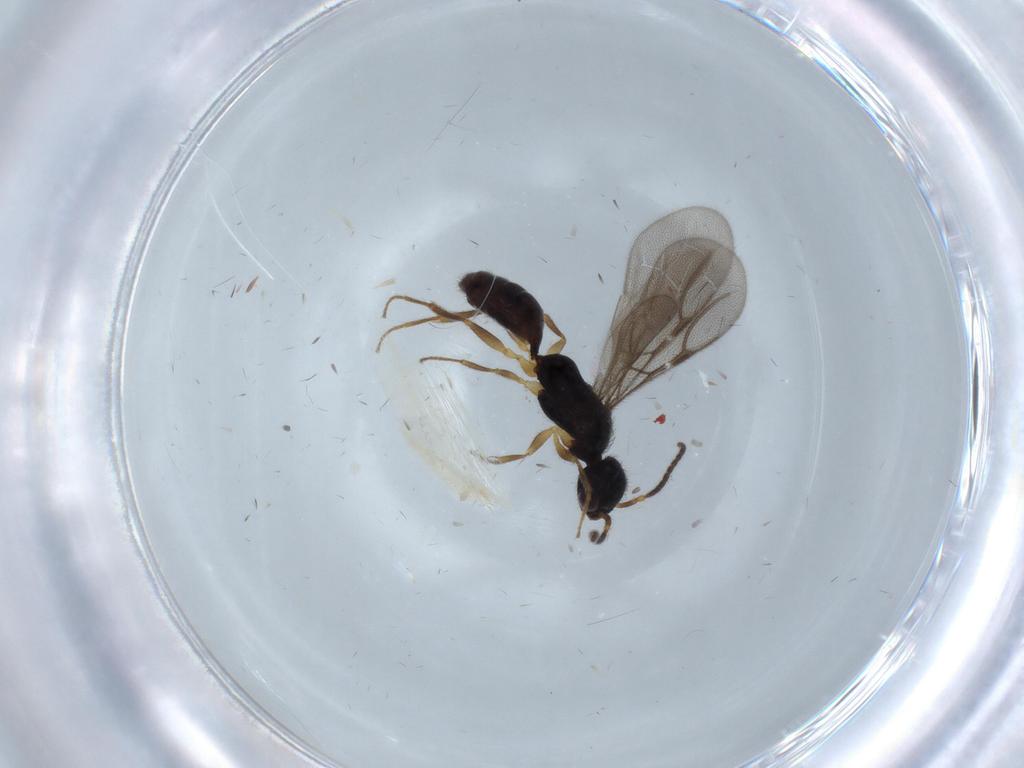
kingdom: Animalia
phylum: Arthropoda
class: Insecta
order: Hymenoptera
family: Bethylidae
